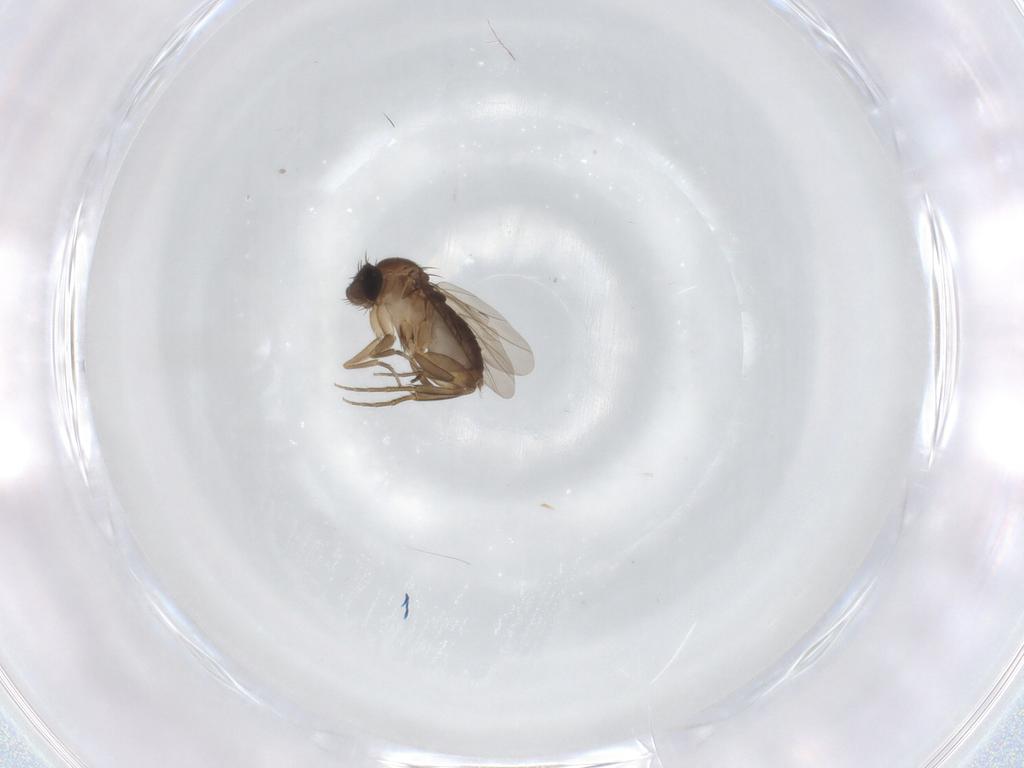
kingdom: Animalia
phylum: Arthropoda
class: Insecta
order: Diptera
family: Phoridae
